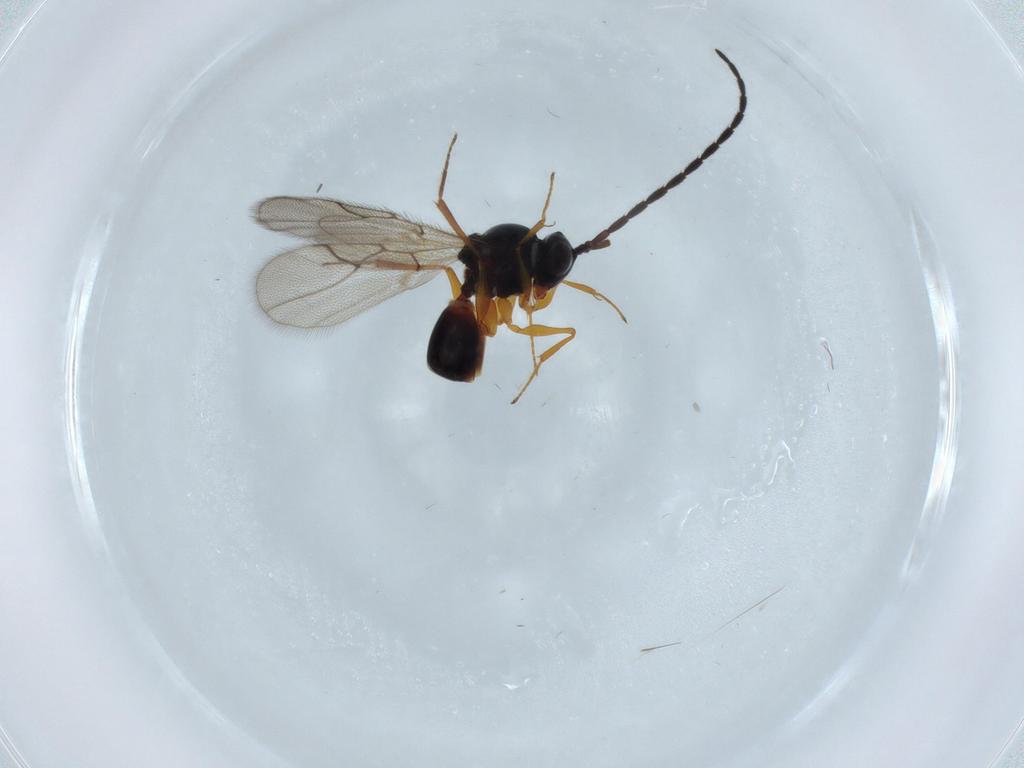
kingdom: Animalia
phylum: Arthropoda
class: Insecta
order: Hymenoptera
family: Figitidae
